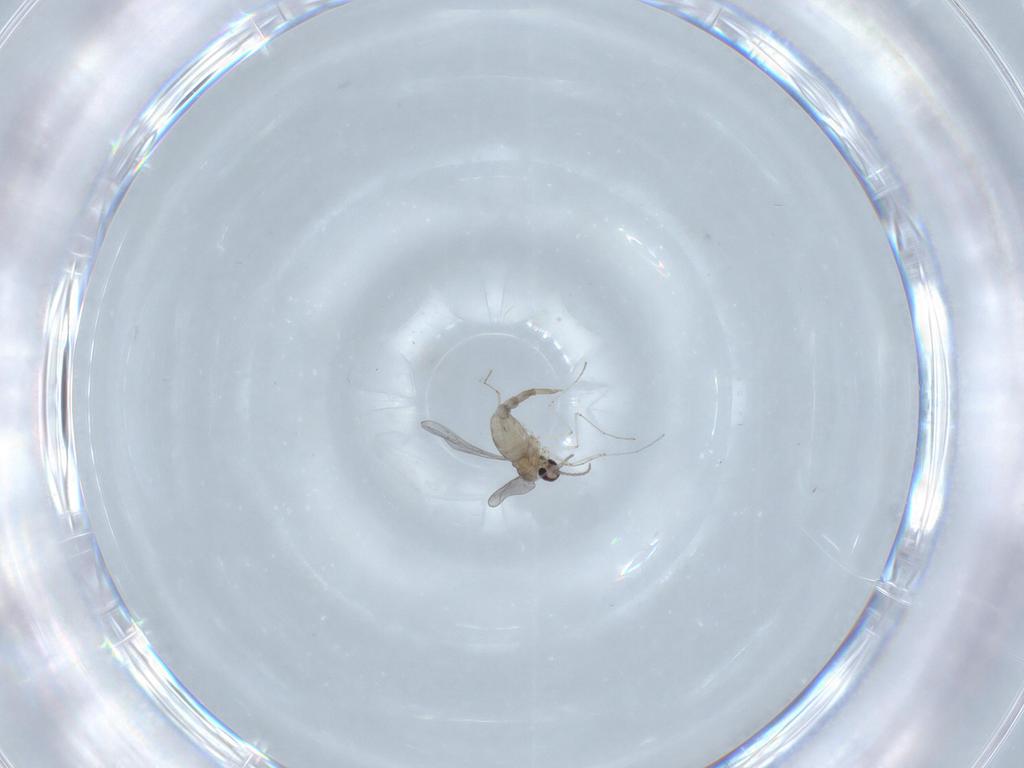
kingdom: Animalia
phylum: Arthropoda
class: Insecta
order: Diptera
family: Cecidomyiidae
